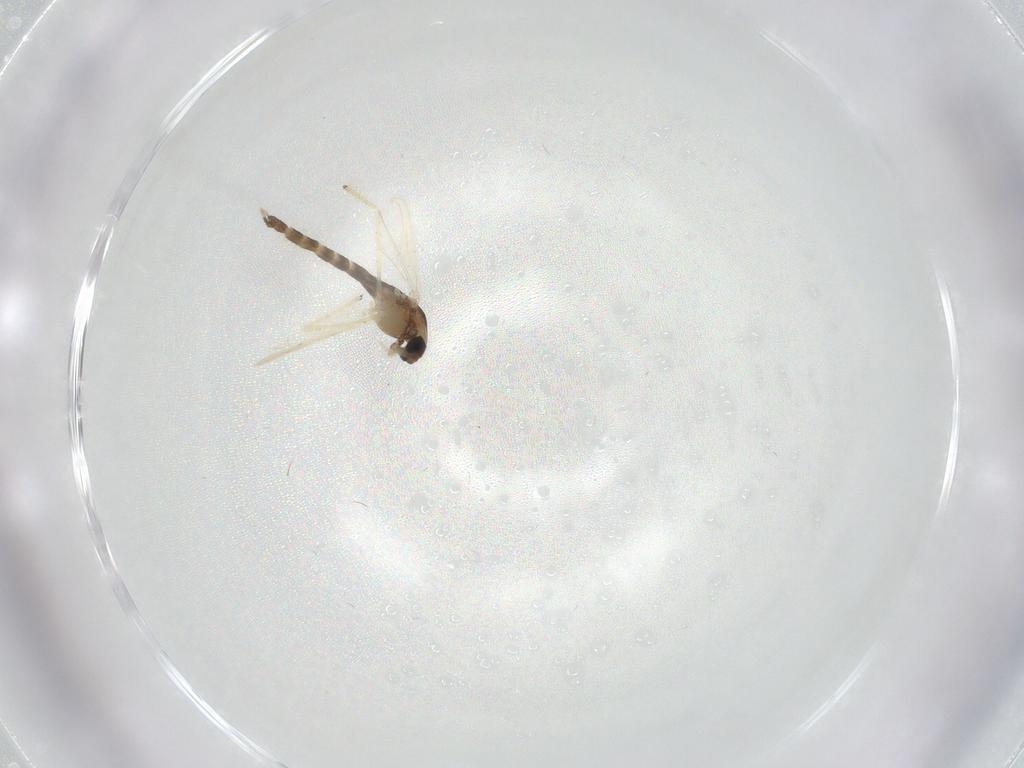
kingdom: Animalia
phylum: Arthropoda
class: Insecta
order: Diptera
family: Chironomidae
